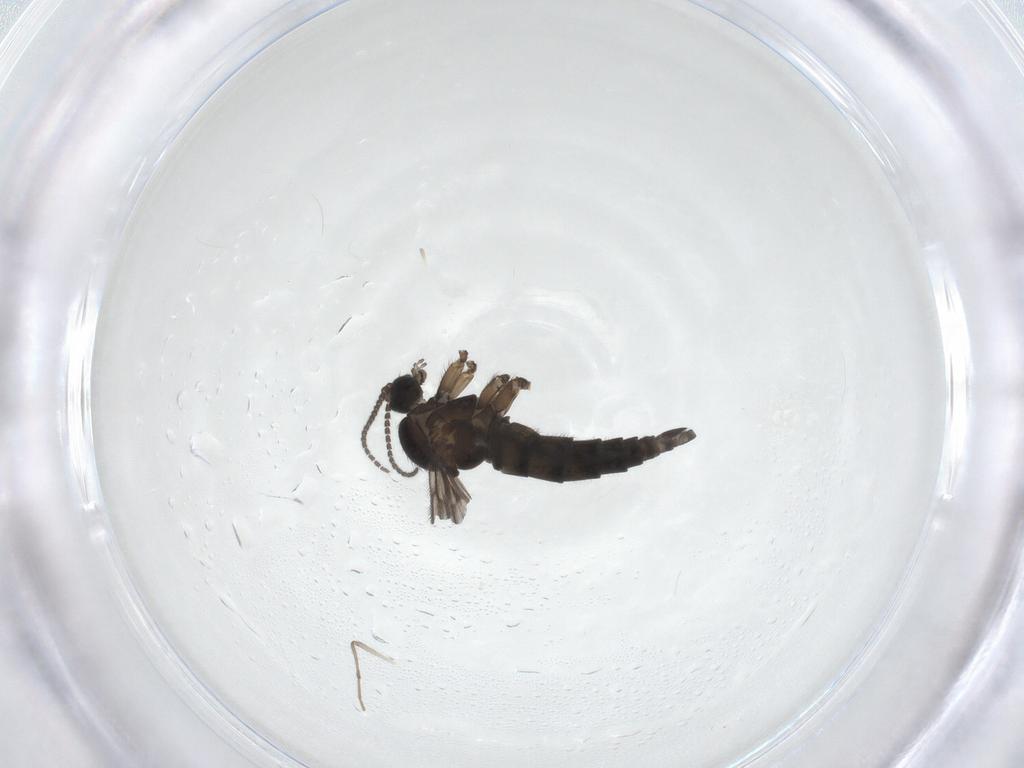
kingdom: Animalia
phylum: Arthropoda
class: Insecta
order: Diptera
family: Sciaridae
